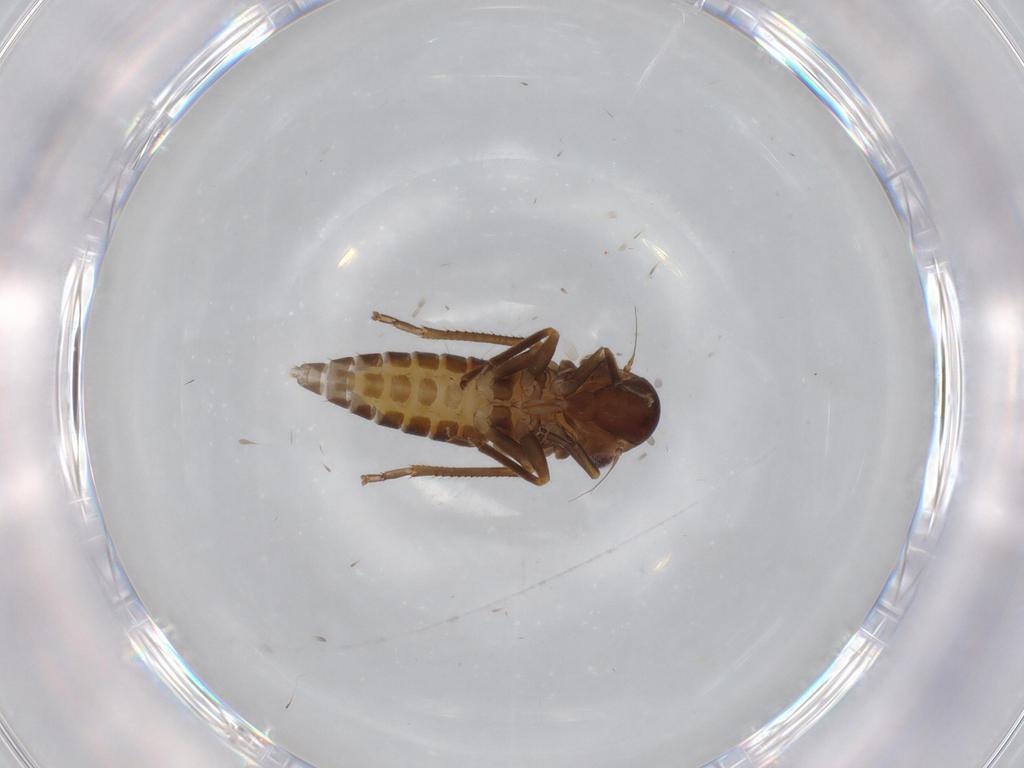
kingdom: Animalia
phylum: Arthropoda
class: Insecta
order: Hemiptera
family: Cicadellidae
